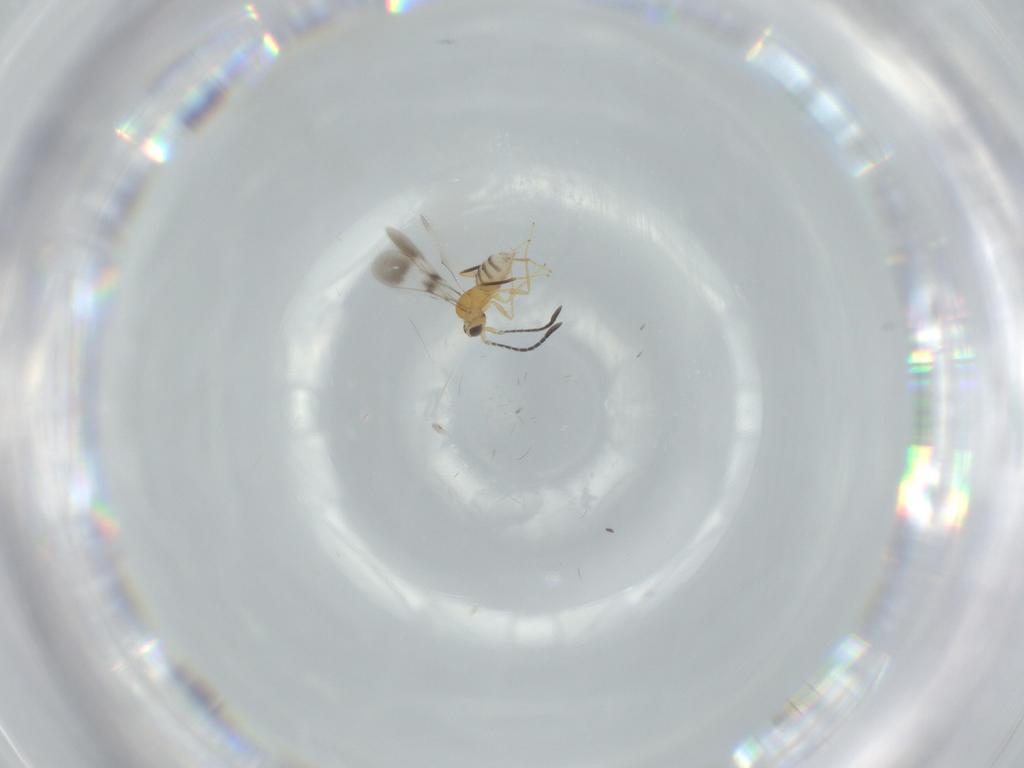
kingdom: Animalia
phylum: Arthropoda
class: Insecta
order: Hymenoptera
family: Mymaridae
